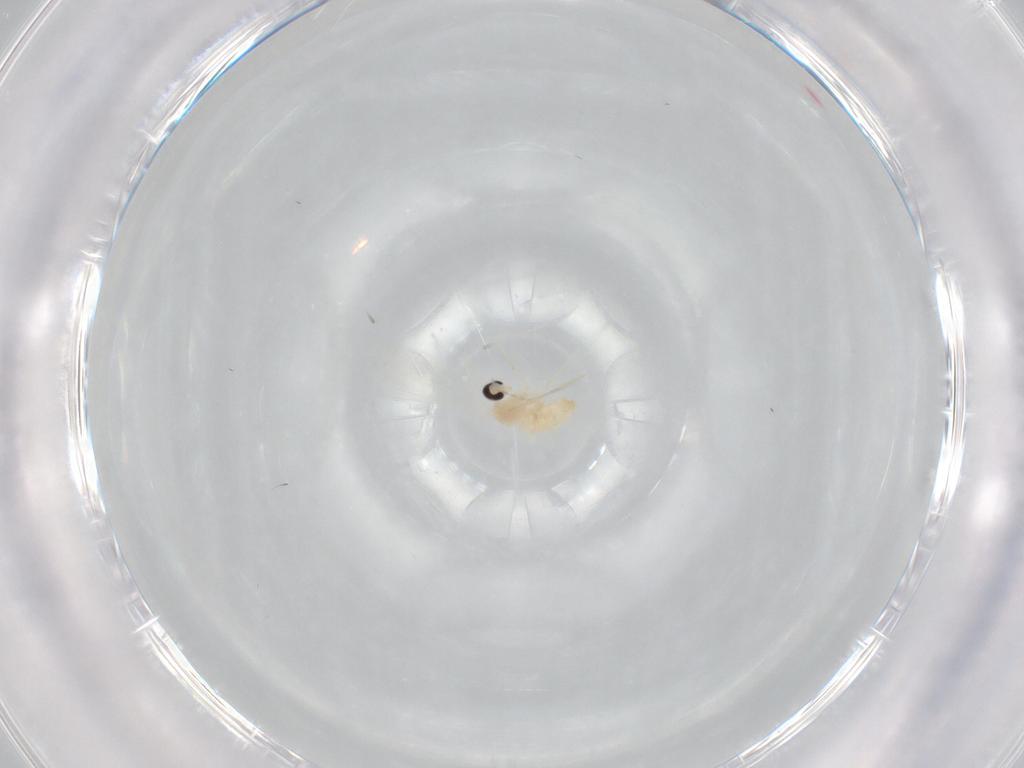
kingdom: Animalia
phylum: Arthropoda
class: Insecta
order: Diptera
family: Cecidomyiidae
